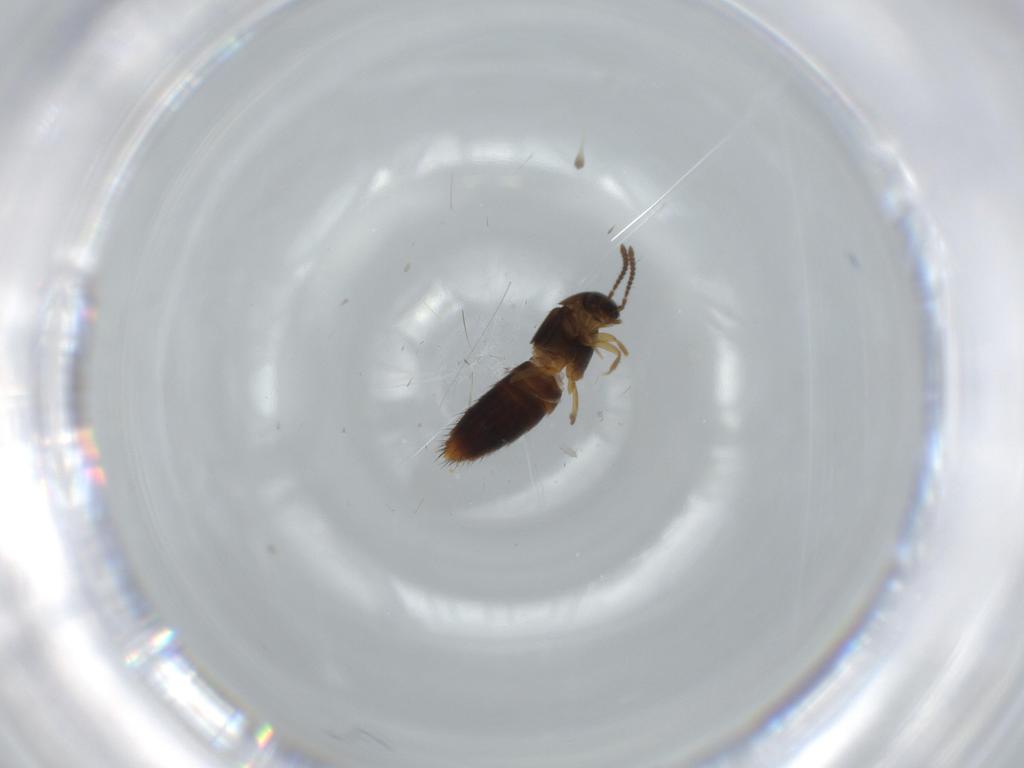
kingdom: Animalia
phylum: Arthropoda
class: Insecta
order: Coleoptera
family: Staphylinidae
